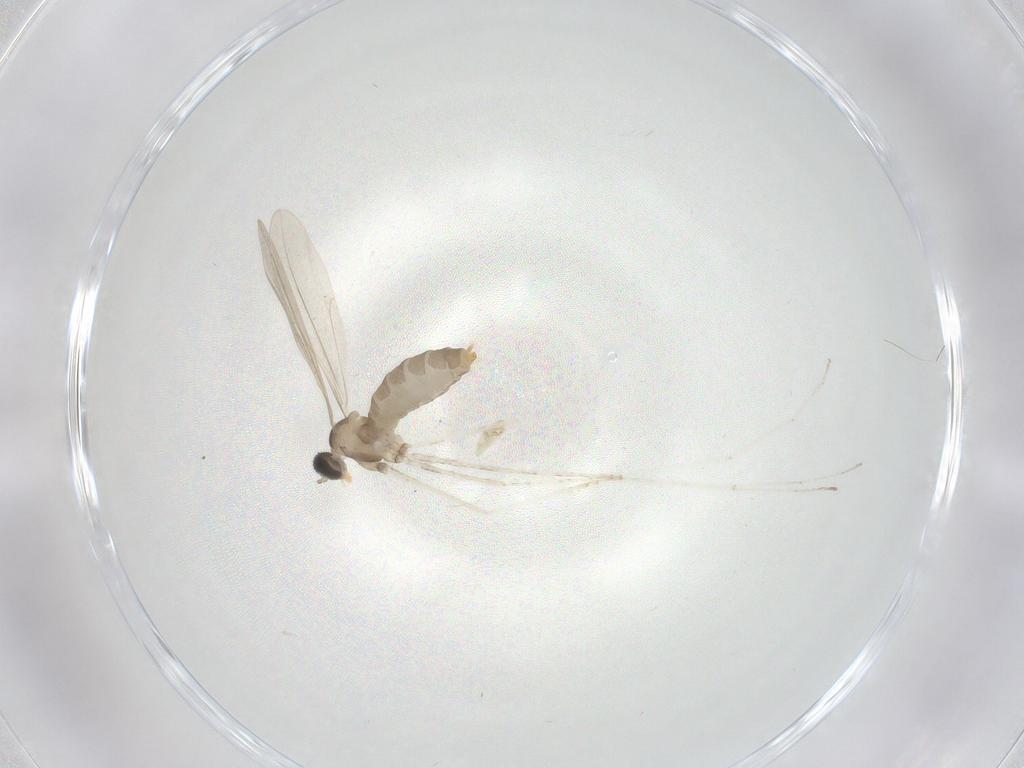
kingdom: Animalia
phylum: Arthropoda
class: Insecta
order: Diptera
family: Cecidomyiidae
